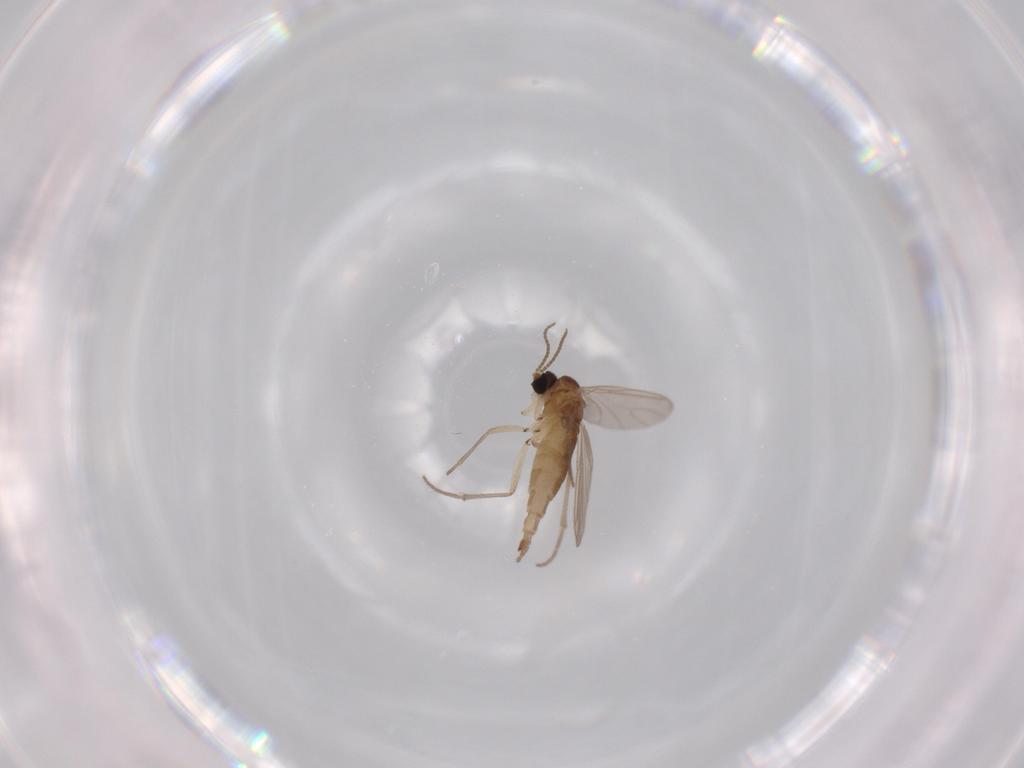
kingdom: Animalia
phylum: Arthropoda
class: Insecta
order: Diptera
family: Sciaridae
